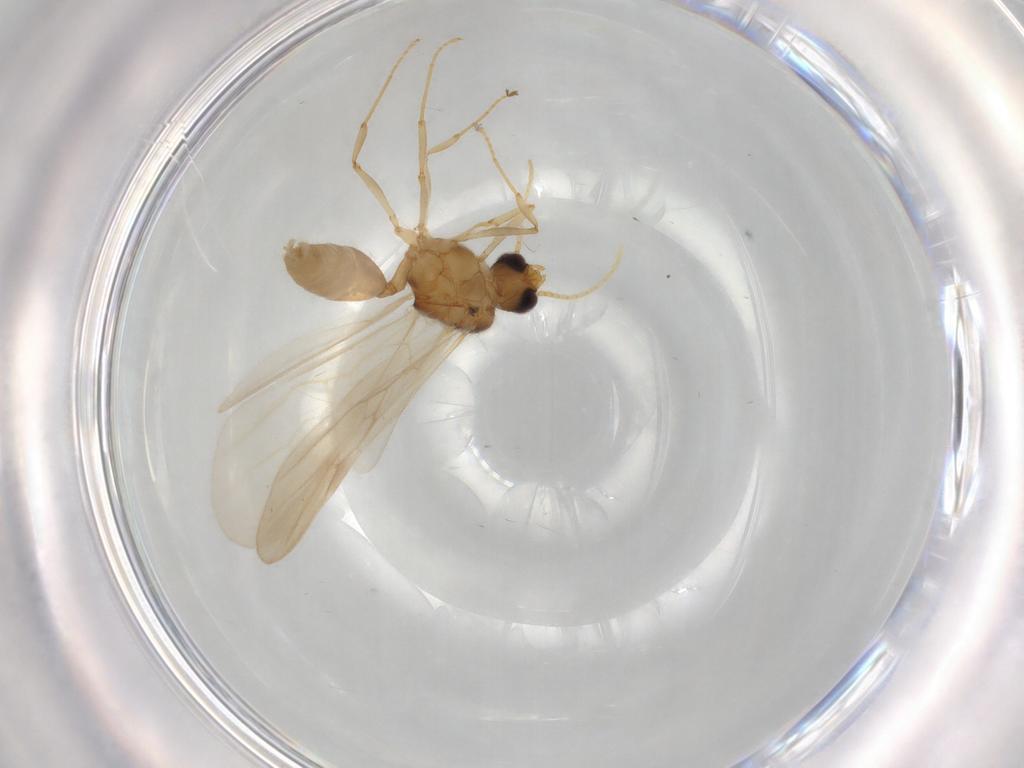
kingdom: Animalia
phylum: Arthropoda
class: Insecta
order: Hymenoptera
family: Formicidae
